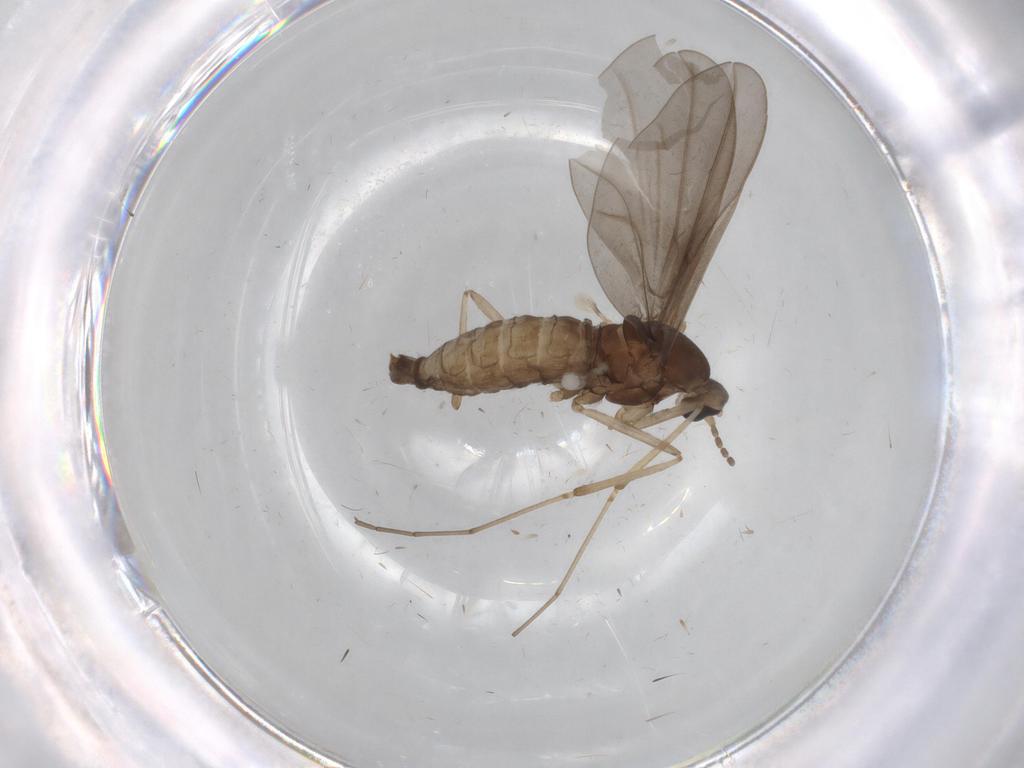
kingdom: Animalia
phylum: Arthropoda
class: Insecta
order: Diptera
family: Cecidomyiidae
